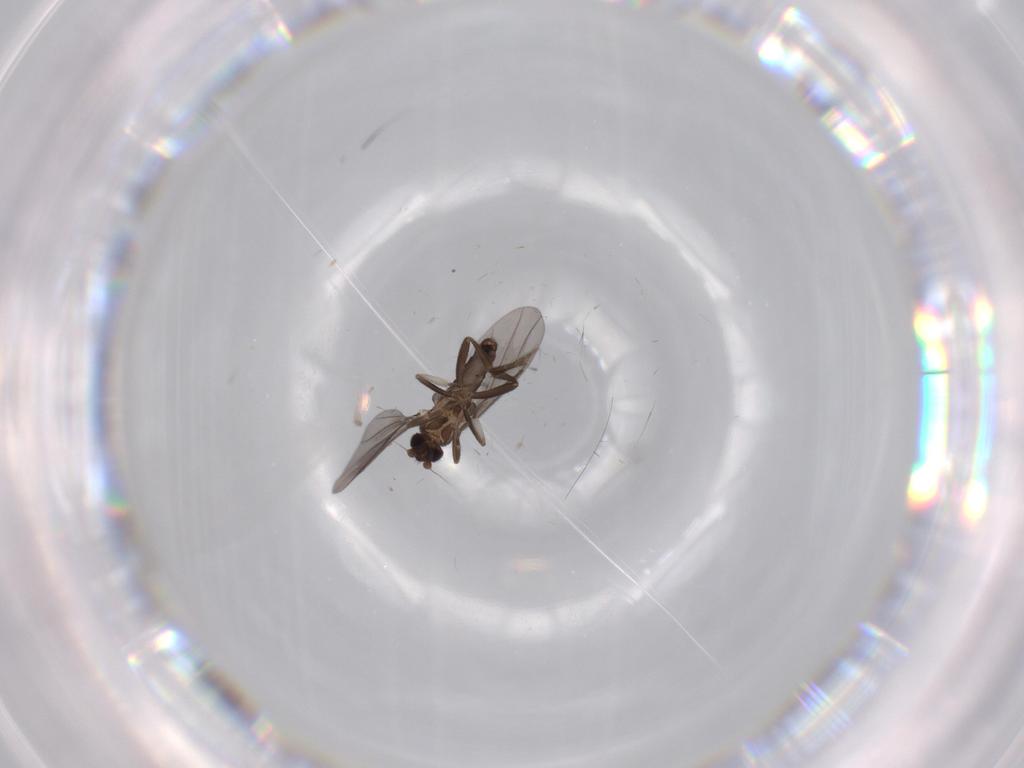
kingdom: Animalia
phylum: Arthropoda
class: Insecta
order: Diptera
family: Phoridae
